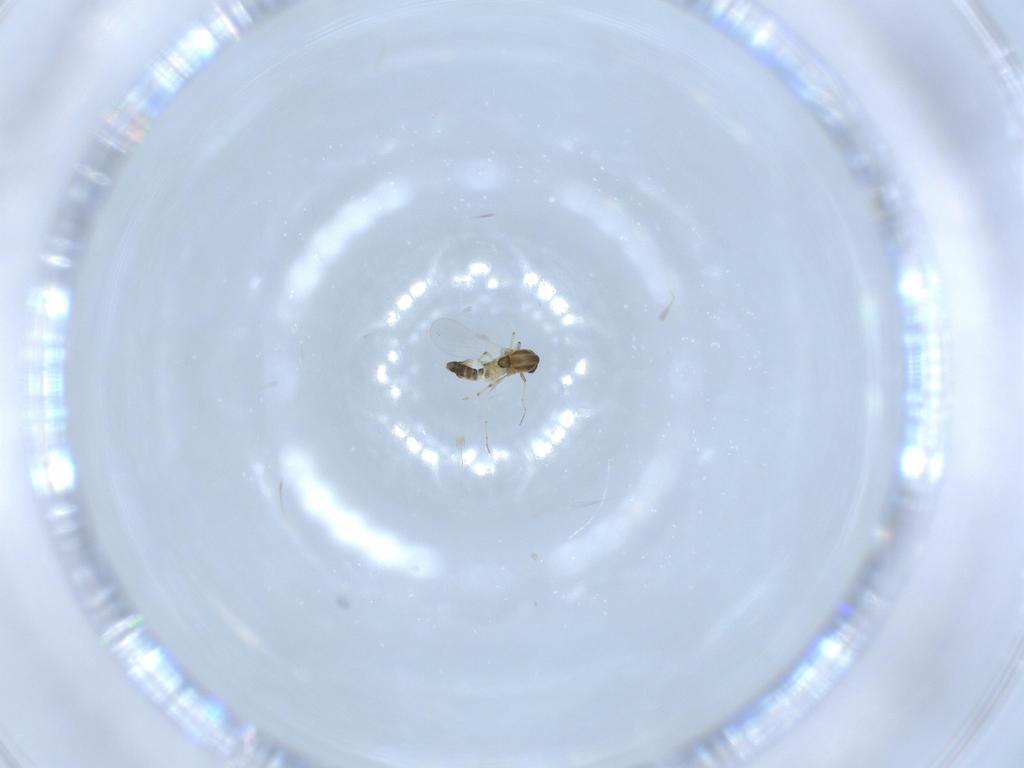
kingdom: Animalia
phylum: Arthropoda
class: Insecta
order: Diptera
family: Chironomidae
